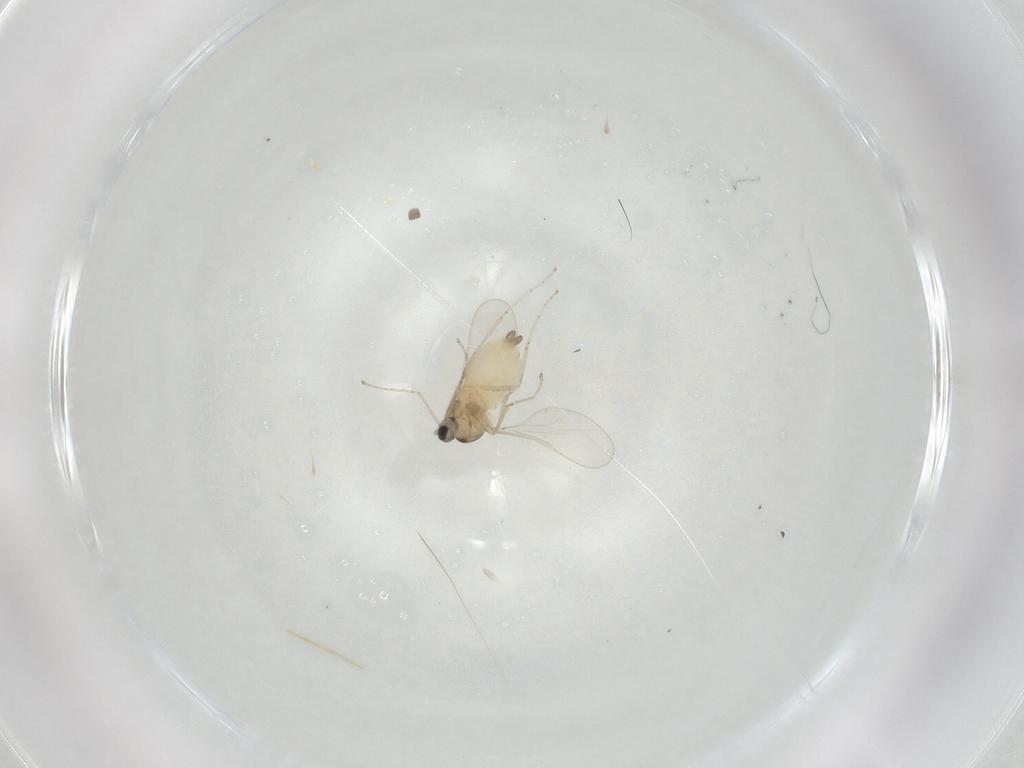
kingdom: Animalia
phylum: Arthropoda
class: Insecta
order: Diptera
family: Cecidomyiidae
